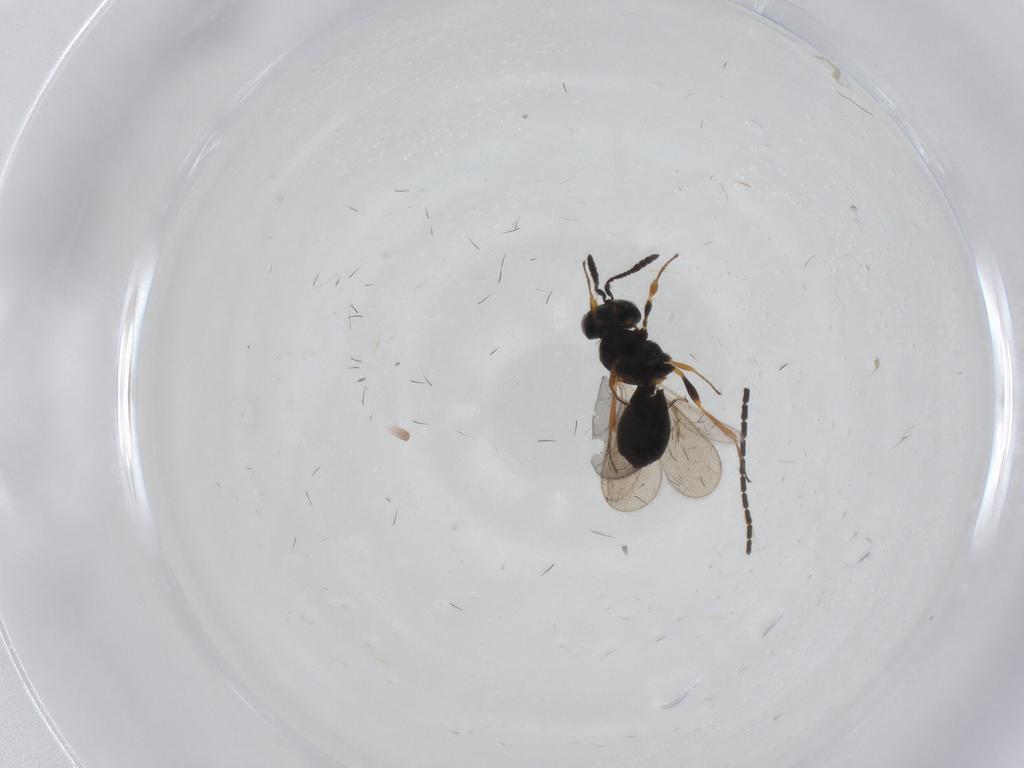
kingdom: Animalia
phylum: Arthropoda
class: Insecta
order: Hymenoptera
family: Scelionidae
